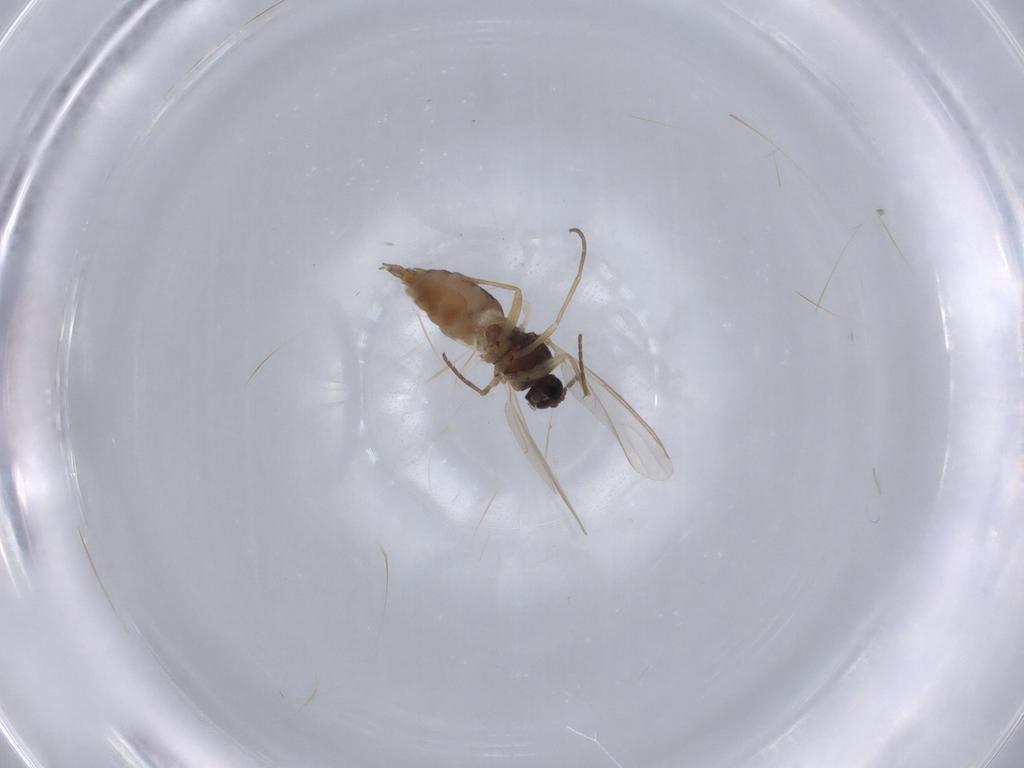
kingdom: Animalia
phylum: Arthropoda
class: Insecta
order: Diptera
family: Sciaridae
